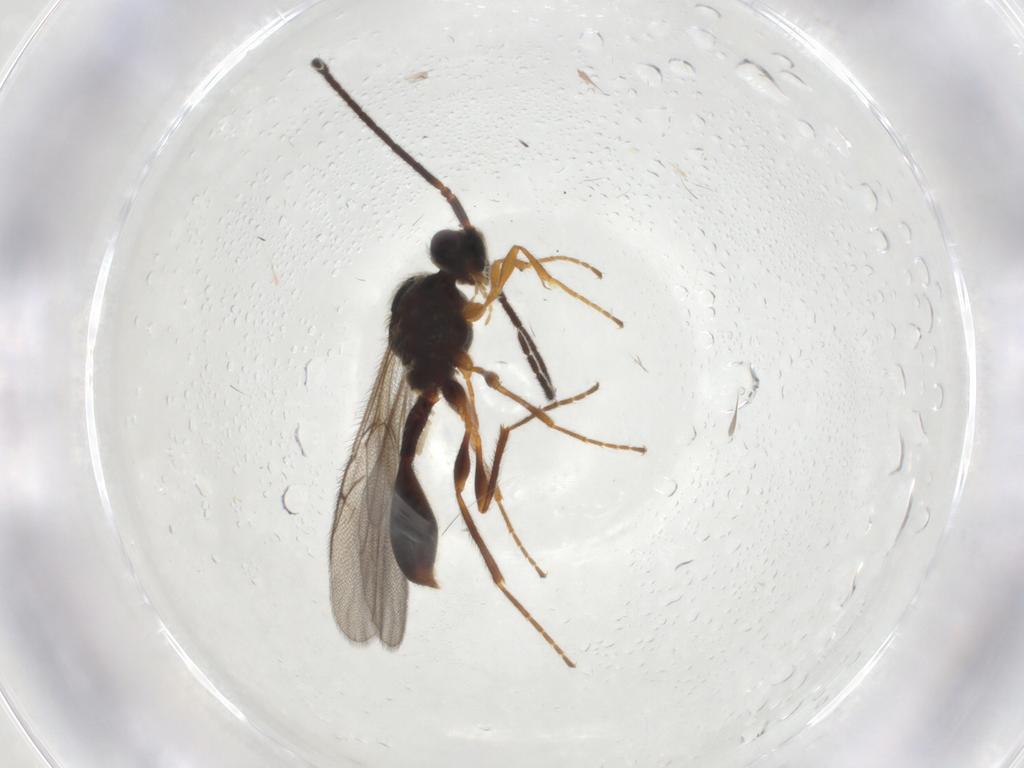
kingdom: Animalia
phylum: Arthropoda
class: Insecta
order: Hymenoptera
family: Diapriidae
